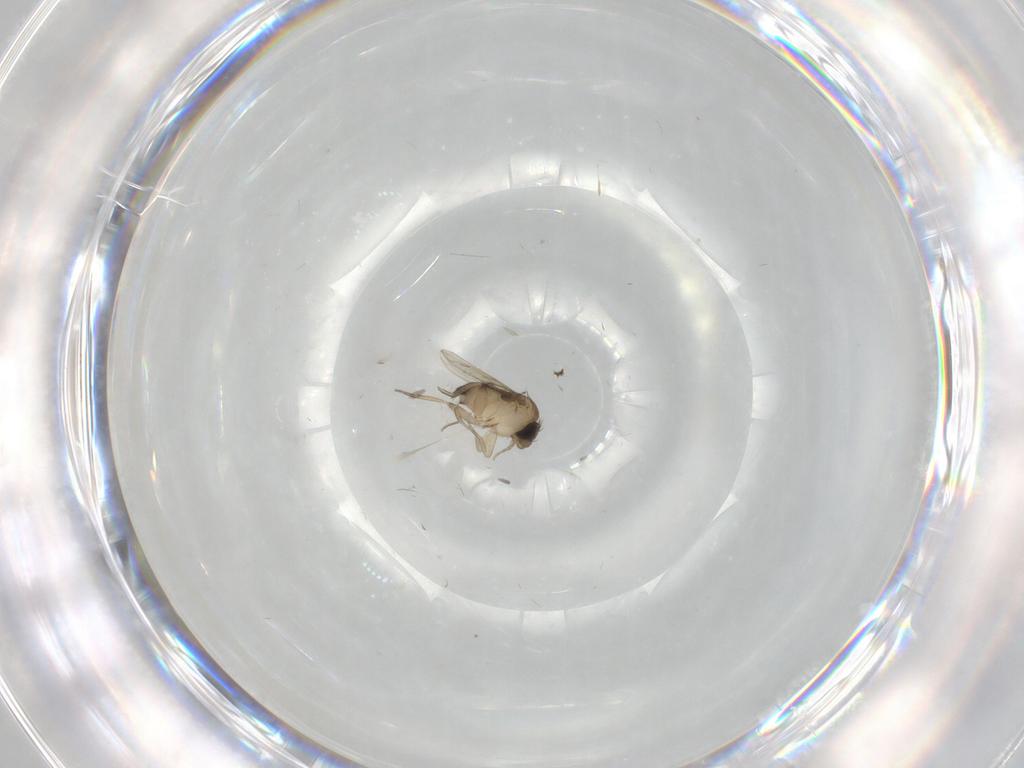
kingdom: Animalia
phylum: Arthropoda
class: Insecta
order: Diptera
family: Phoridae
